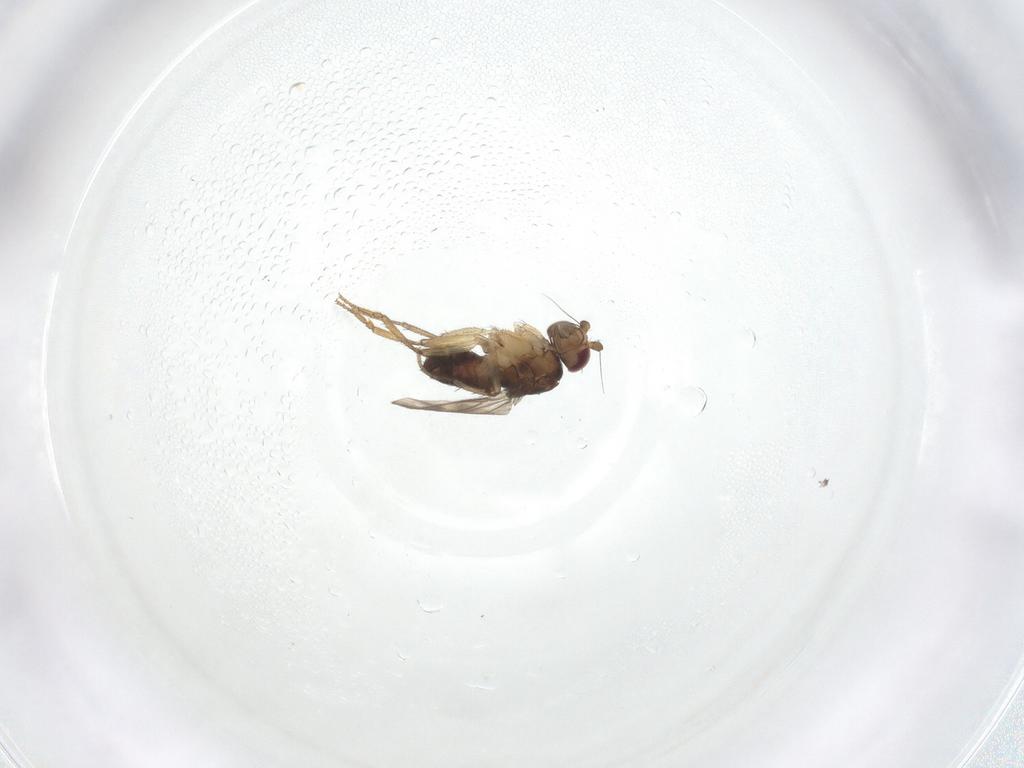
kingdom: Animalia
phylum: Arthropoda
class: Insecta
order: Diptera
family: Sphaeroceridae
